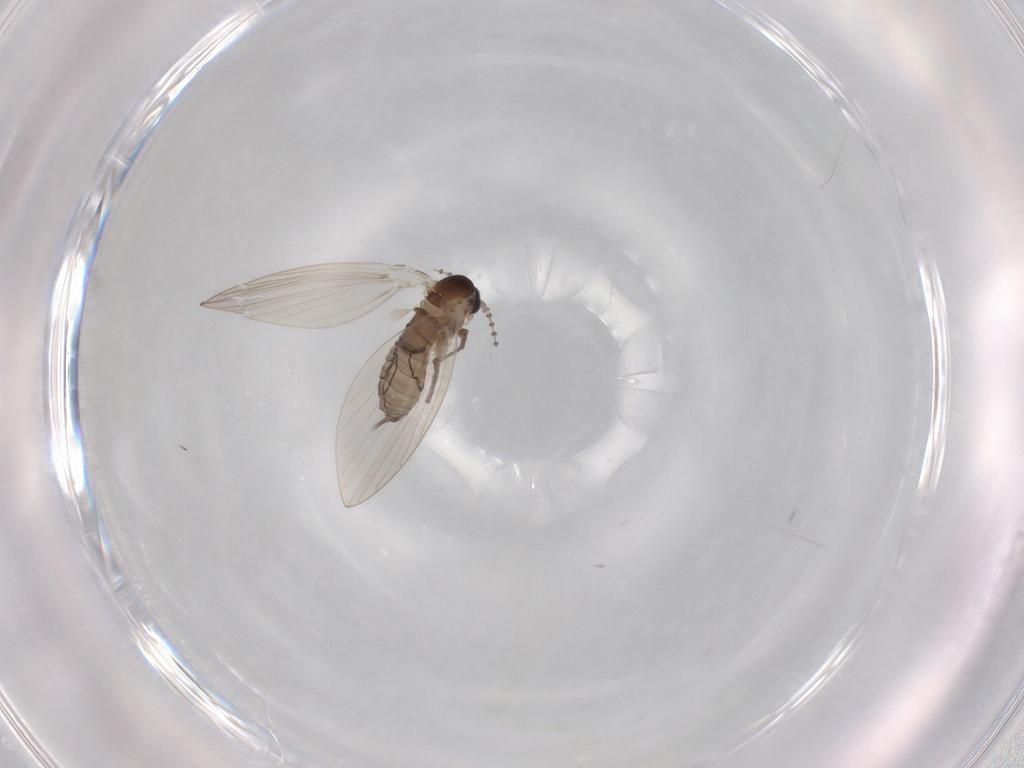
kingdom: Animalia
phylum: Arthropoda
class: Insecta
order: Diptera
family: Psychodidae
